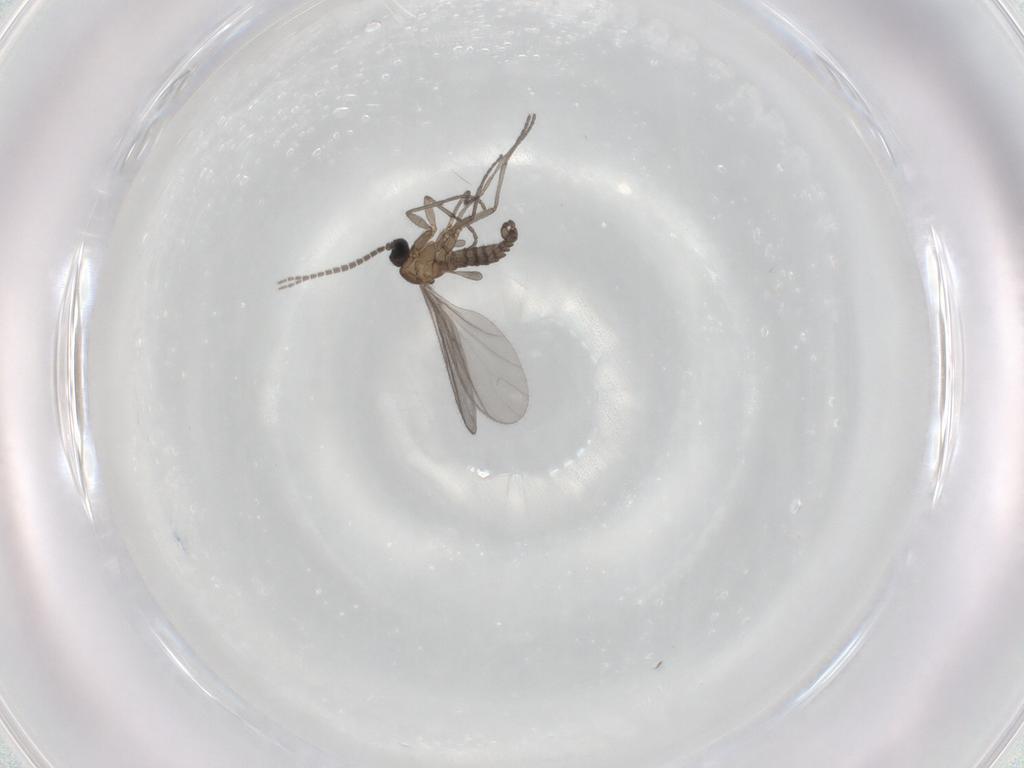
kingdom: Animalia
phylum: Arthropoda
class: Insecta
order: Diptera
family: Sciaridae
